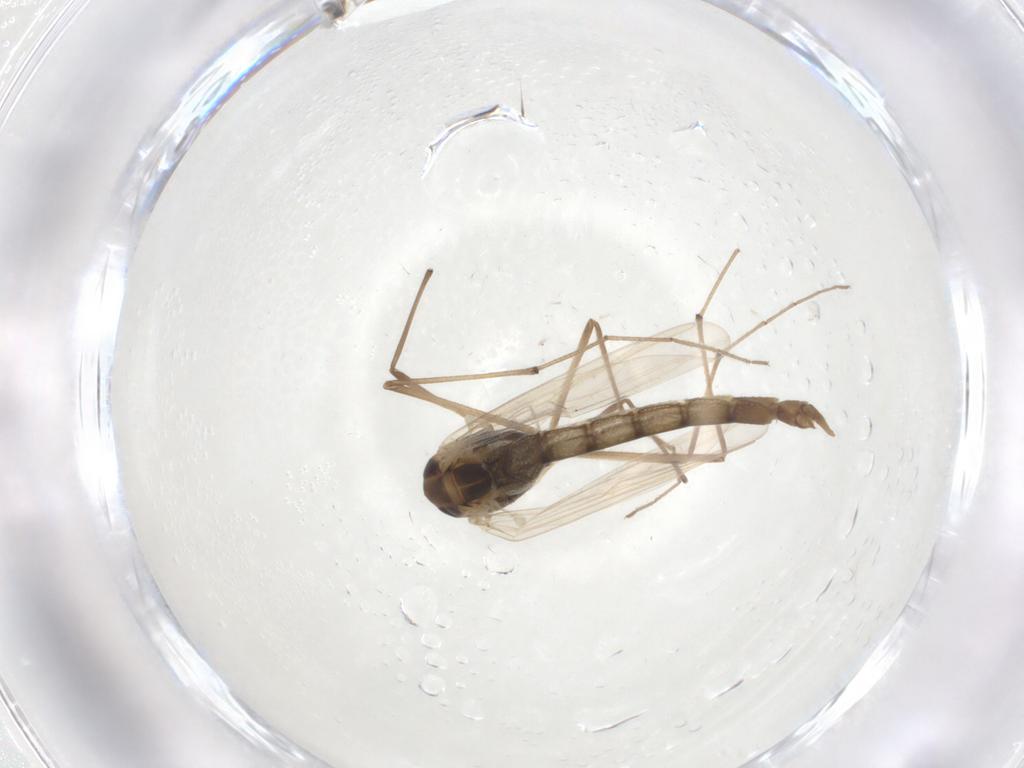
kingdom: Animalia
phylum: Arthropoda
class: Insecta
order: Diptera
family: Chironomidae
